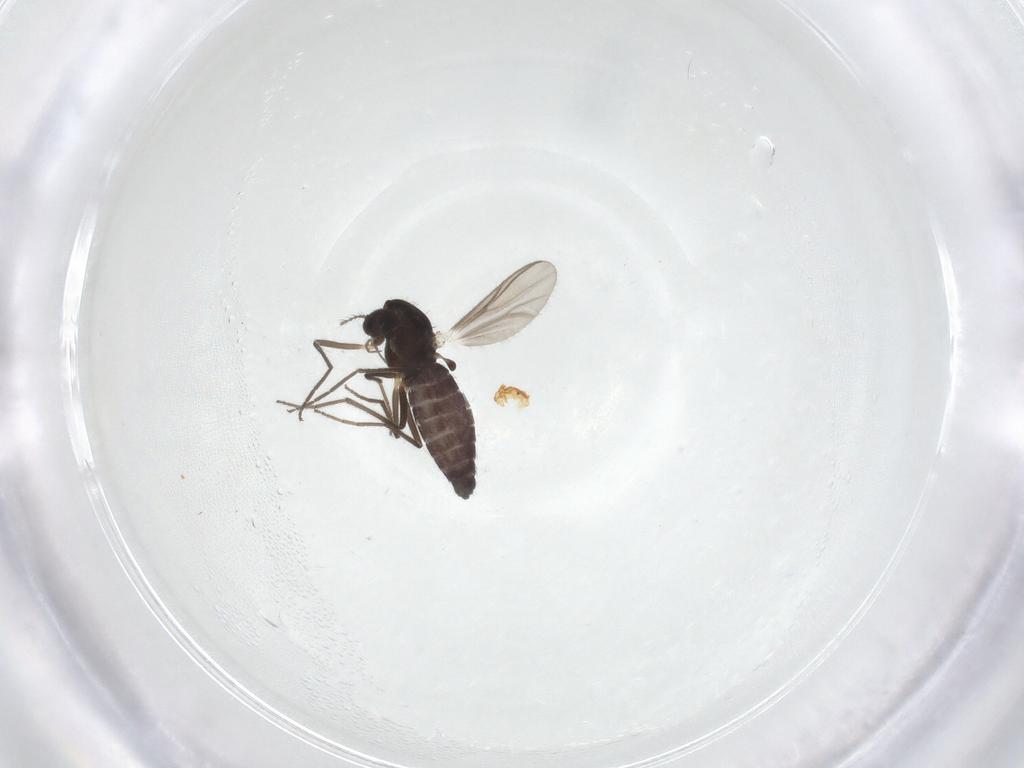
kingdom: Animalia
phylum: Arthropoda
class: Insecta
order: Diptera
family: Chironomidae
